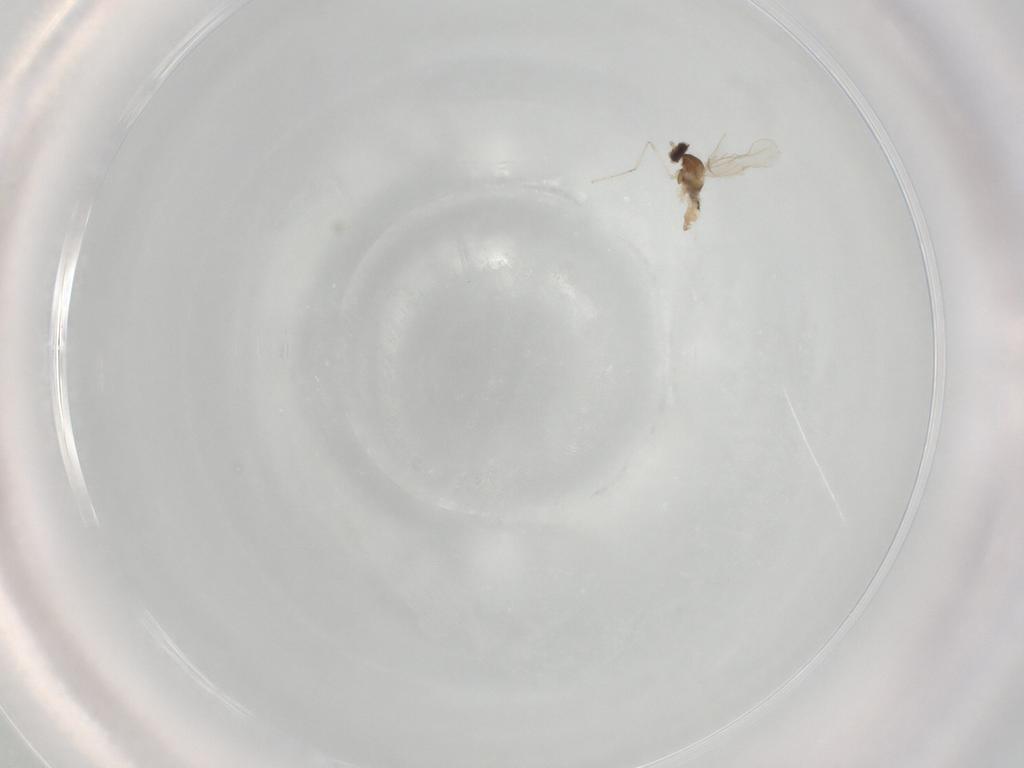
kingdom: Animalia
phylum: Arthropoda
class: Insecta
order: Diptera
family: Cecidomyiidae
